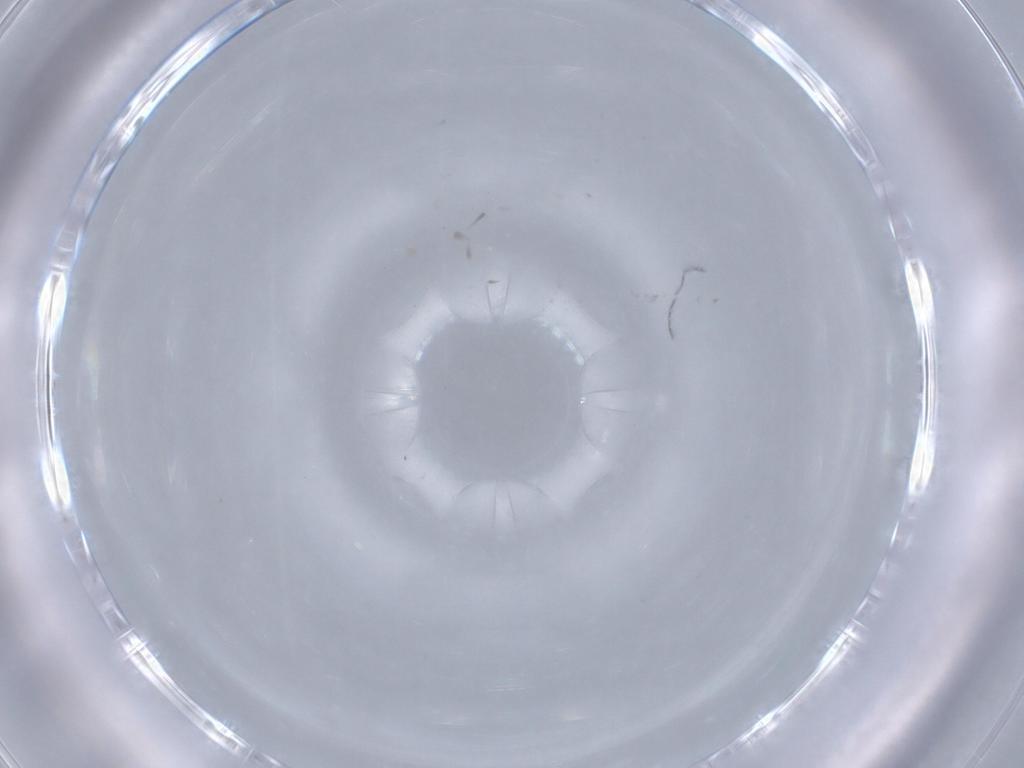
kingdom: Animalia
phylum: Arthropoda
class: Insecta
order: Diptera
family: Ceratopogonidae
